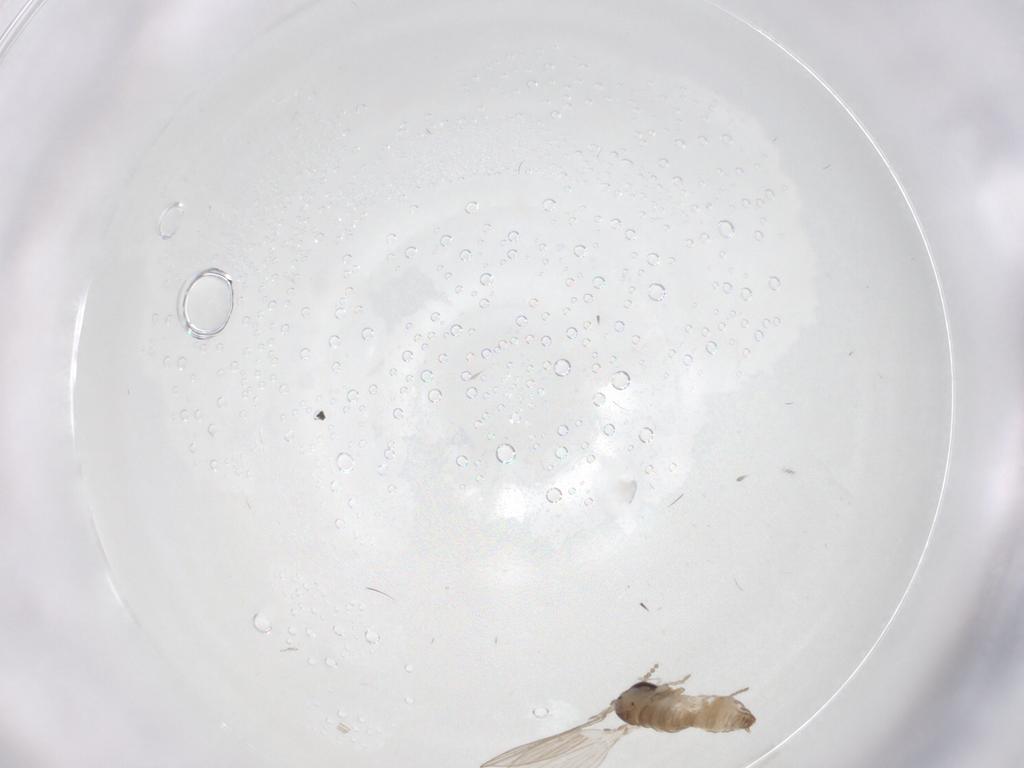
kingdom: Animalia
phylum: Arthropoda
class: Insecta
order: Diptera
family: Psychodidae
